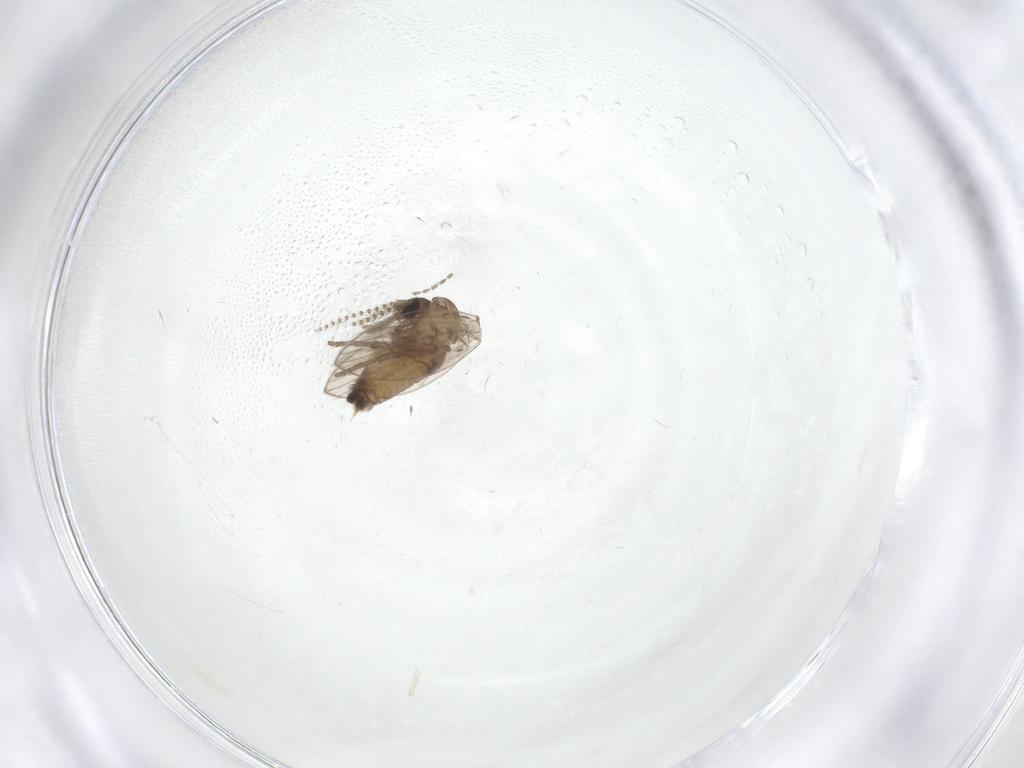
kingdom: Animalia
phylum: Arthropoda
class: Insecta
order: Diptera
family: Psychodidae
